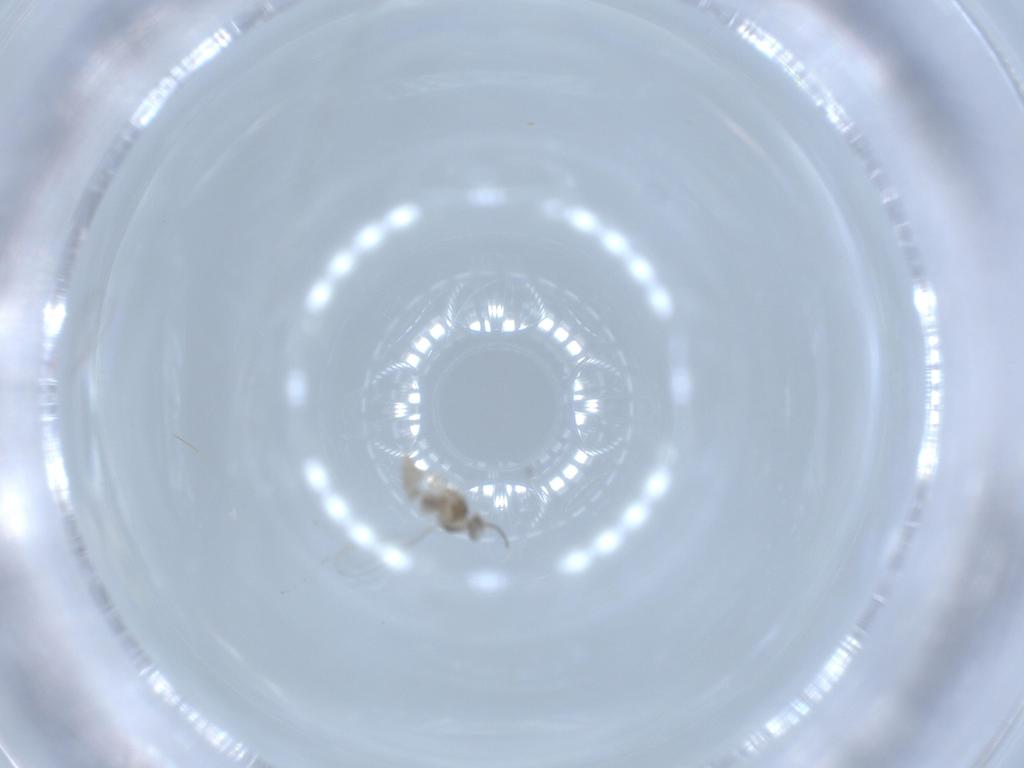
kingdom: Animalia
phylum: Arthropoda
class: Insecta
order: Diptera
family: Cecidomyiidae
